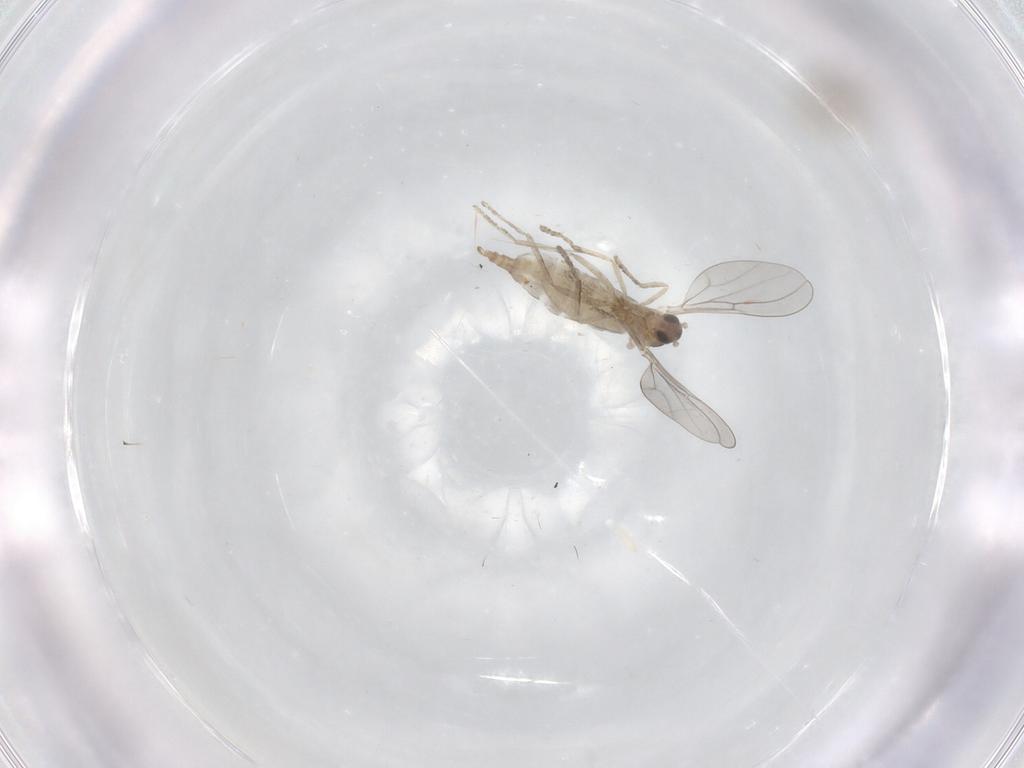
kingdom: Animalia
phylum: Arthropoda
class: Insecta
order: Diptera
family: Cecidomyiidae
